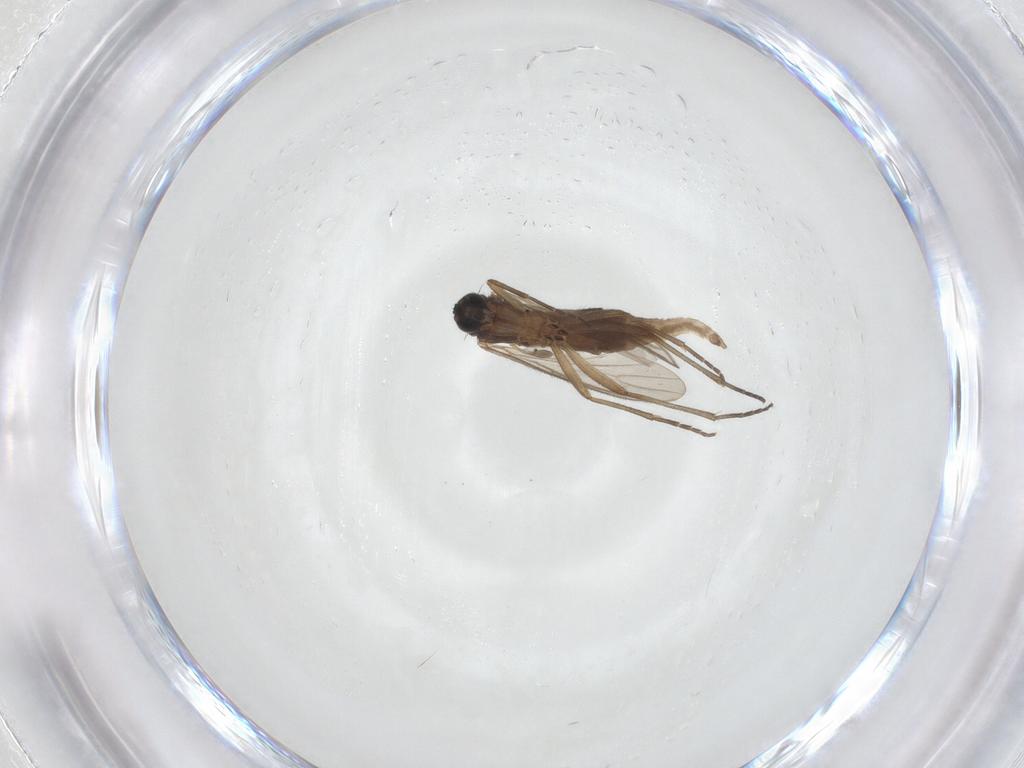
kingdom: Animalia
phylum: Arthropoda
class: Insecta
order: Diptera
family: Sciaridae
